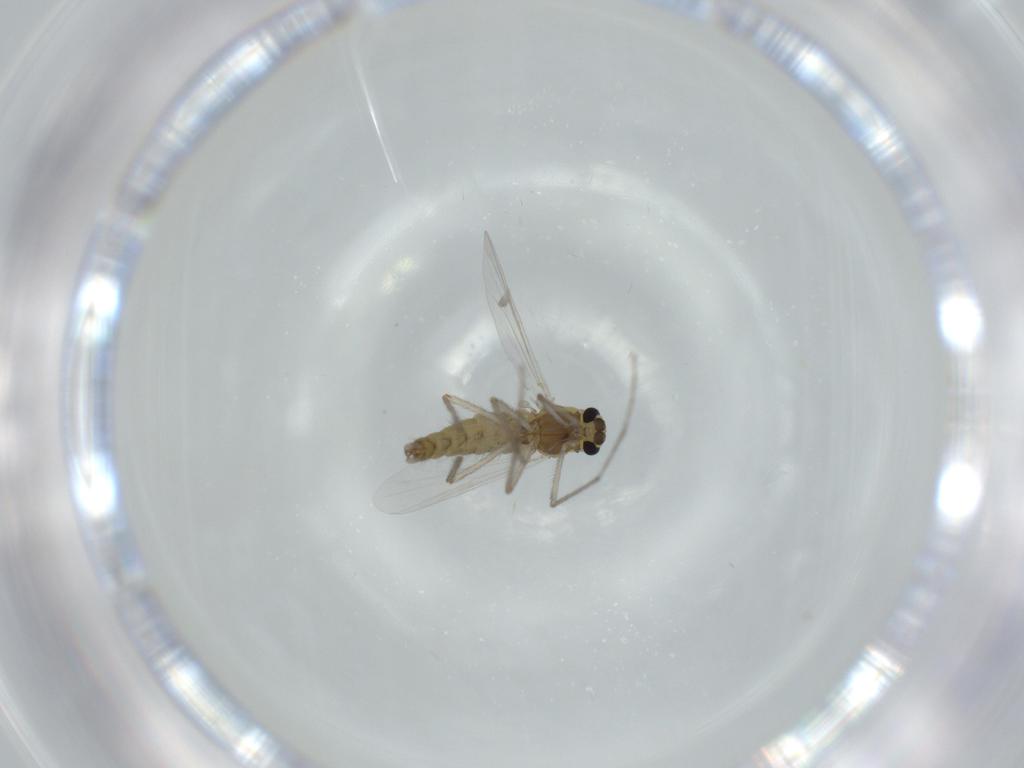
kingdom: Animalia
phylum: Arthropoda
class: Insecta
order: Diptera
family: Chironomidae
